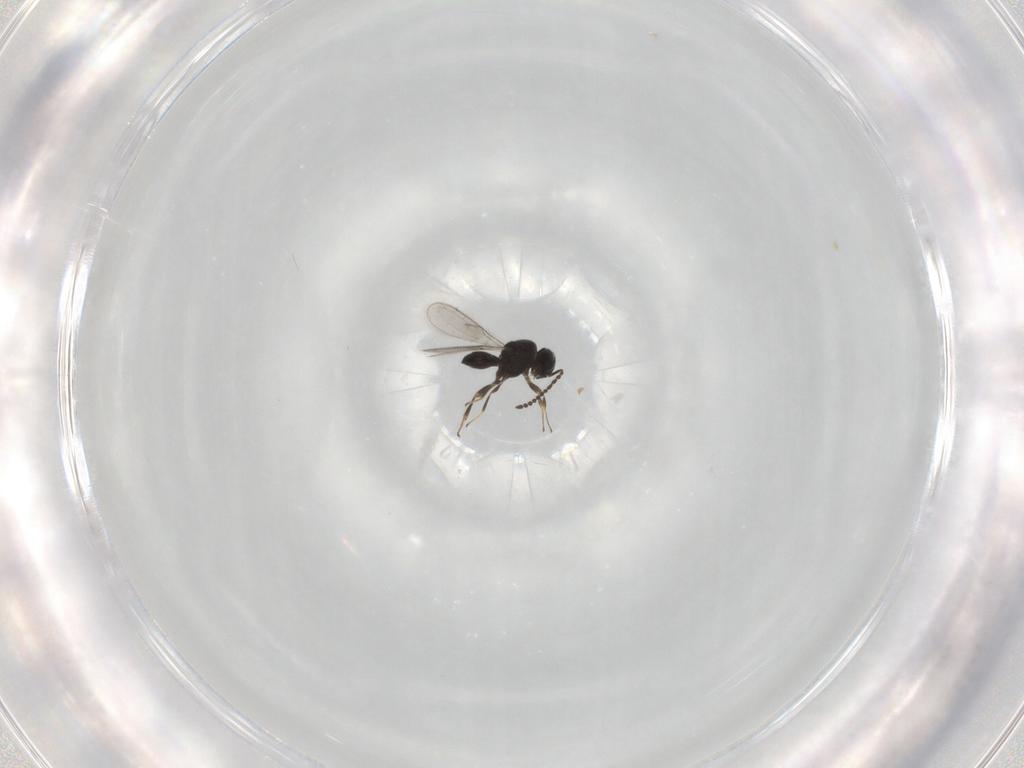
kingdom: Animalia
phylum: Arthropoda
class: Insecta
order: Hymenoptera
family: Scelionidae
